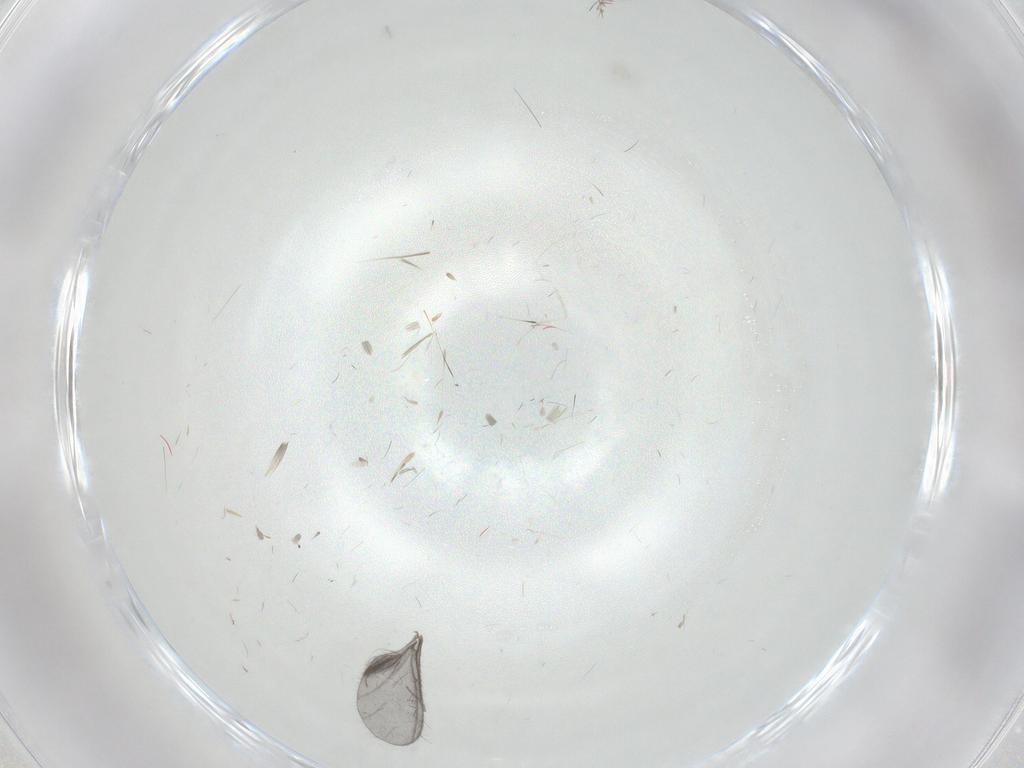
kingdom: Animalia
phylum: Arthropoda
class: Insecta
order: Diptera
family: Sciaridae
